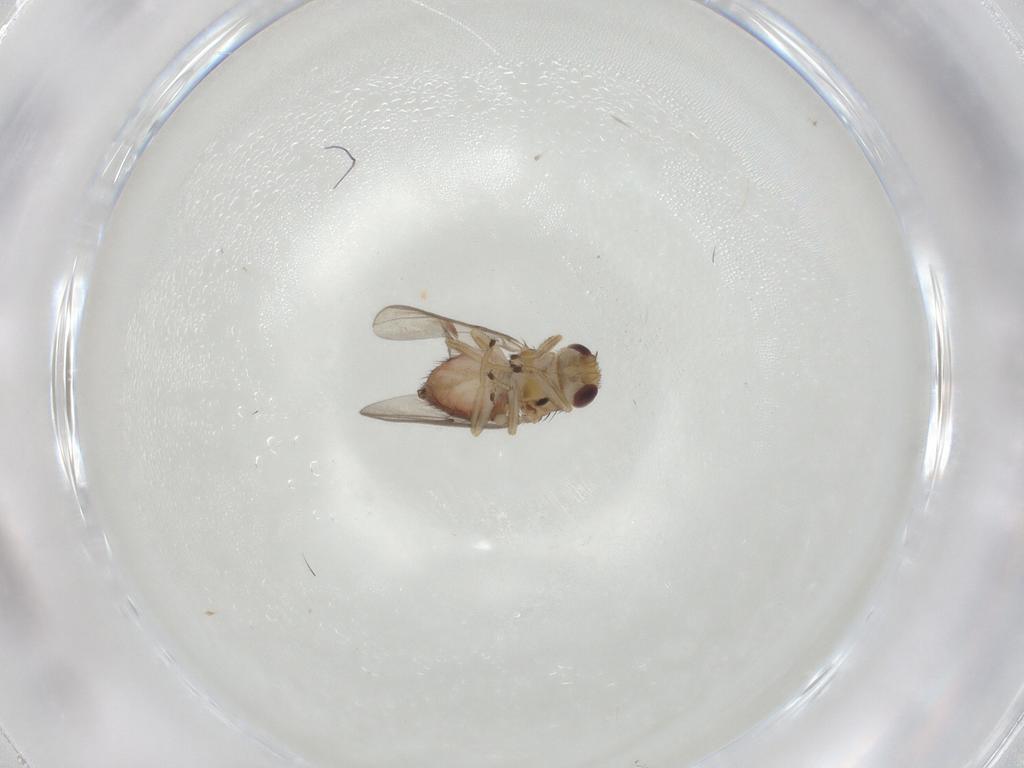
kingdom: Animalia
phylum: Arthropoda
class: Insecta
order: Diptera
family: Chloropidae
